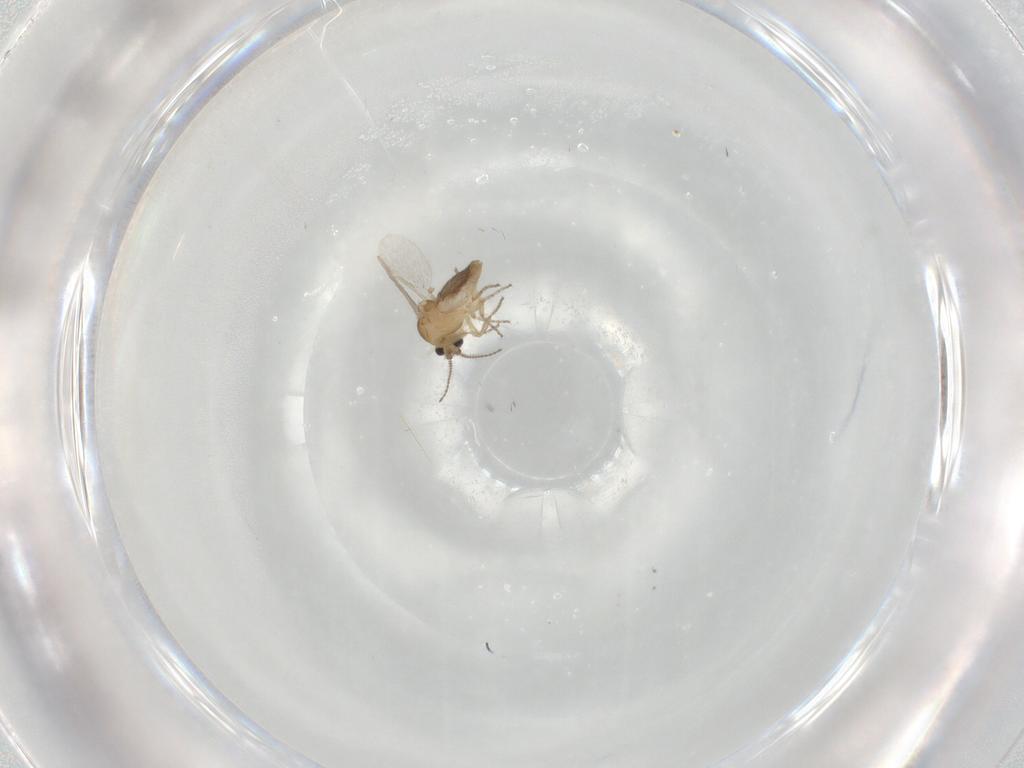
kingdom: Animalia
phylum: Arthropoda
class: Insecta
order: Diptera
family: Ceratopogonidae
